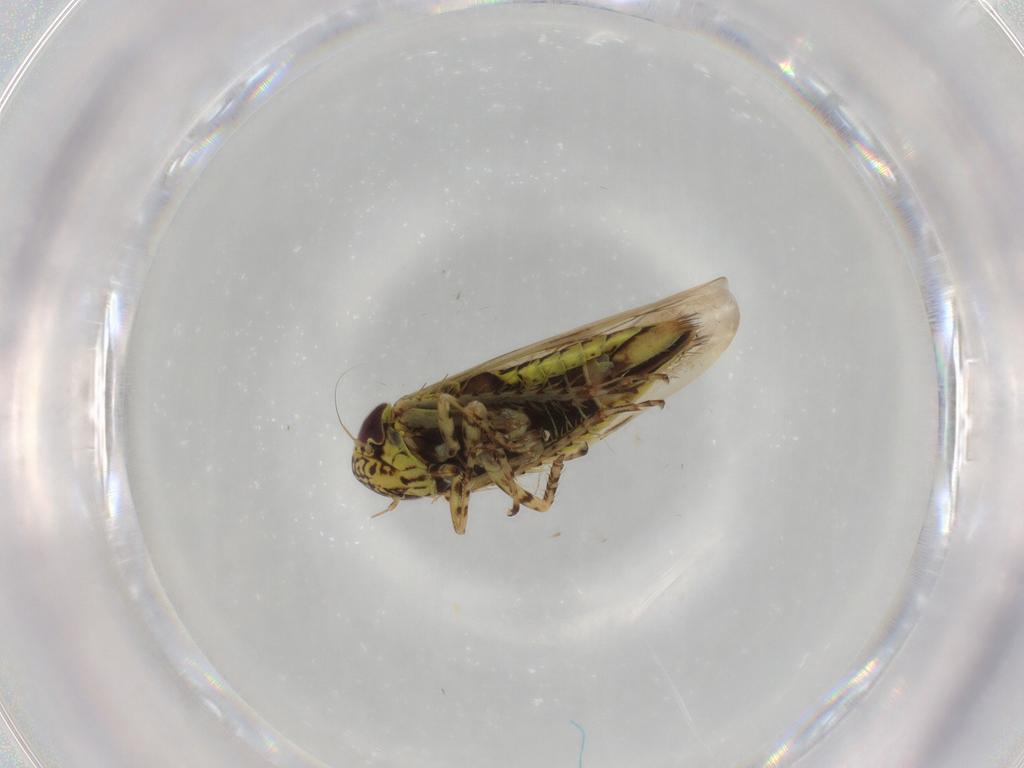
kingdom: Animalia
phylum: Arthropoda
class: Insecta
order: Hemiptera
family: Cicadellidae
